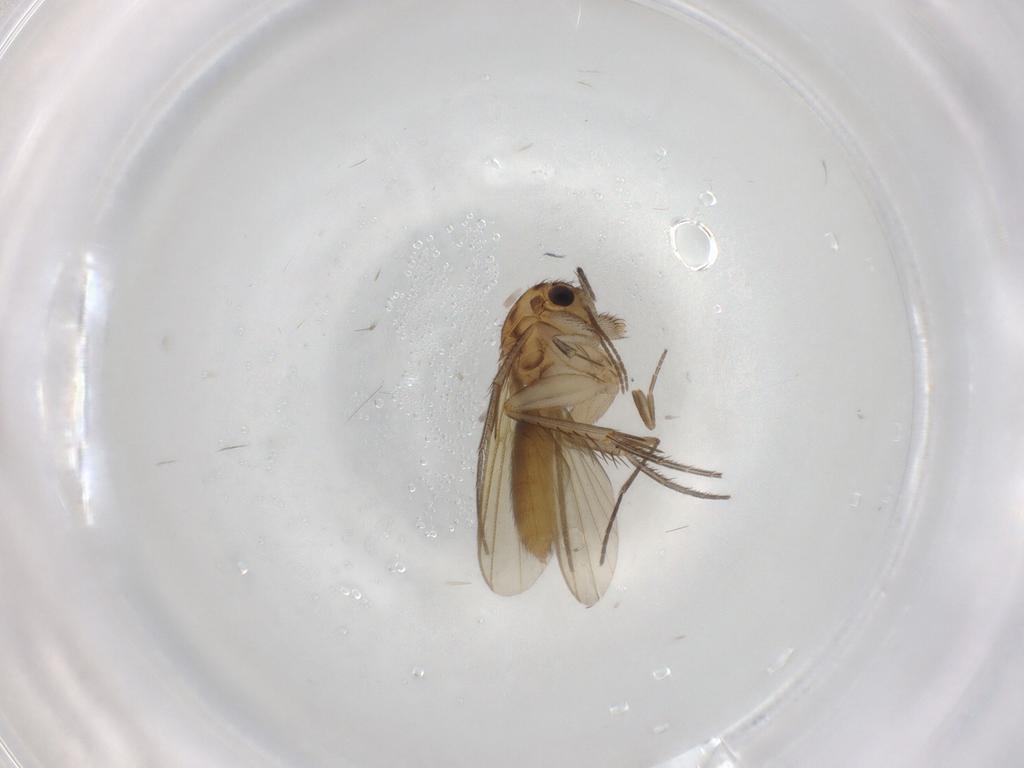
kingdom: Animalia
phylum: Arthropoda
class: Insecta
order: Diptera
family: Mycetophilidae
